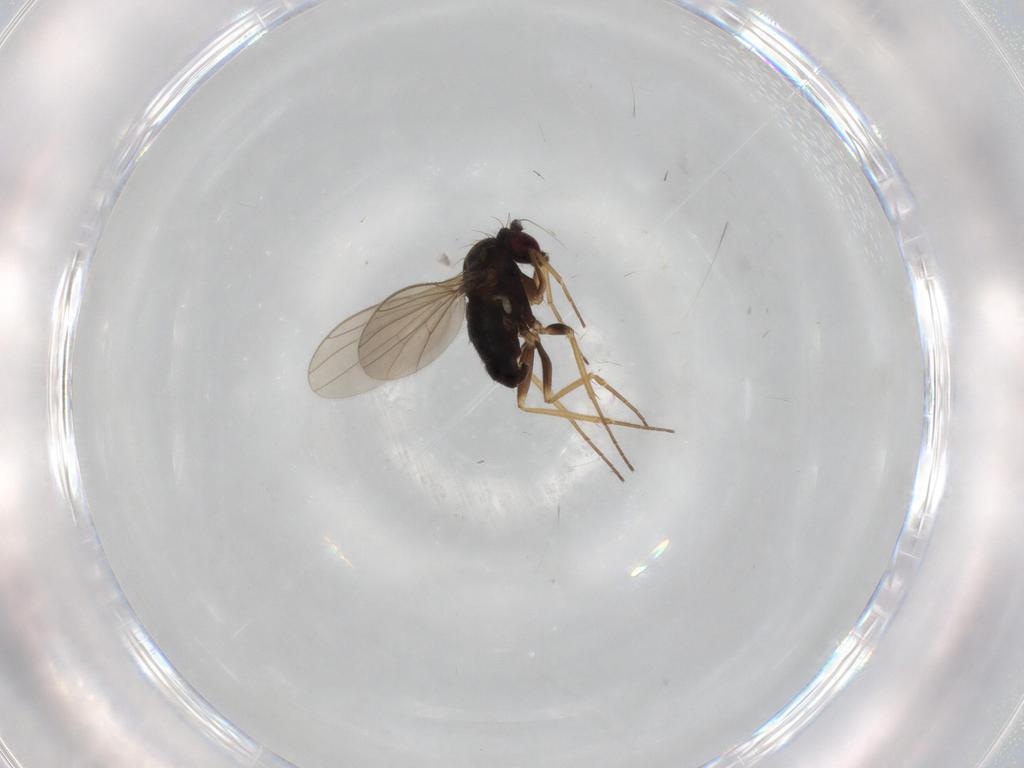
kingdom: Animalia
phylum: Arthropoda
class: Insecta
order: Diptera
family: Dolichopodidae
